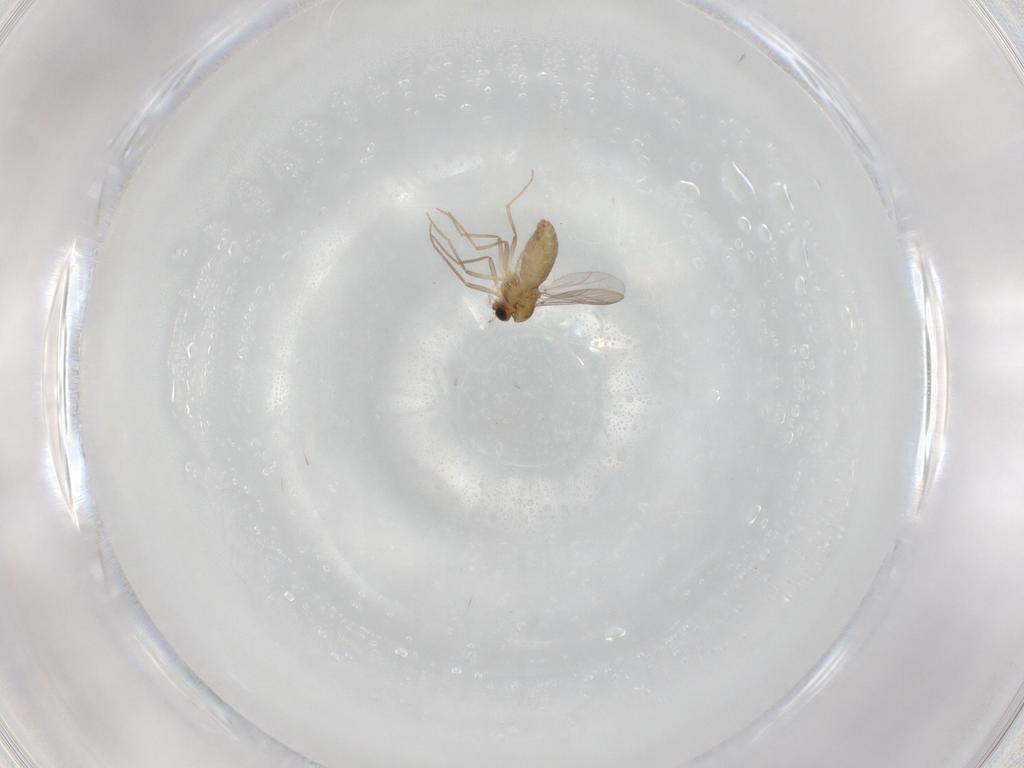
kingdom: Animalia
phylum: Arthropoda
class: Insecta
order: Diptera
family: Chironomidae
